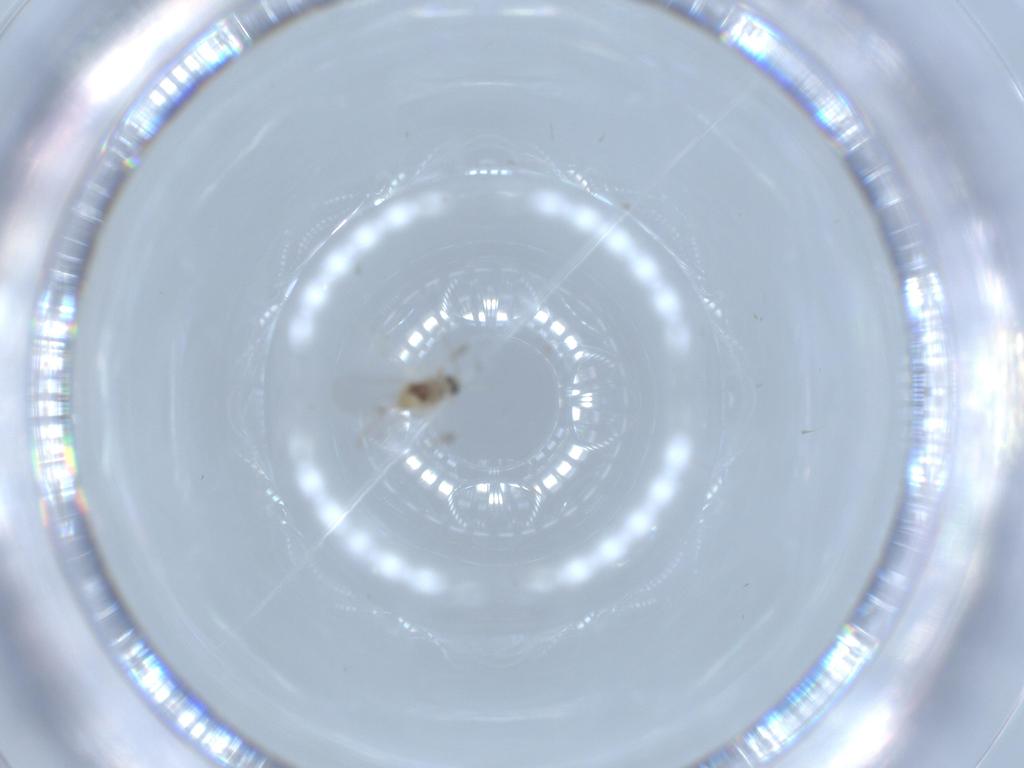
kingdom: Animalia
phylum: Arthropoda
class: Insecta
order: Diptera
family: Cecidomyiidae
